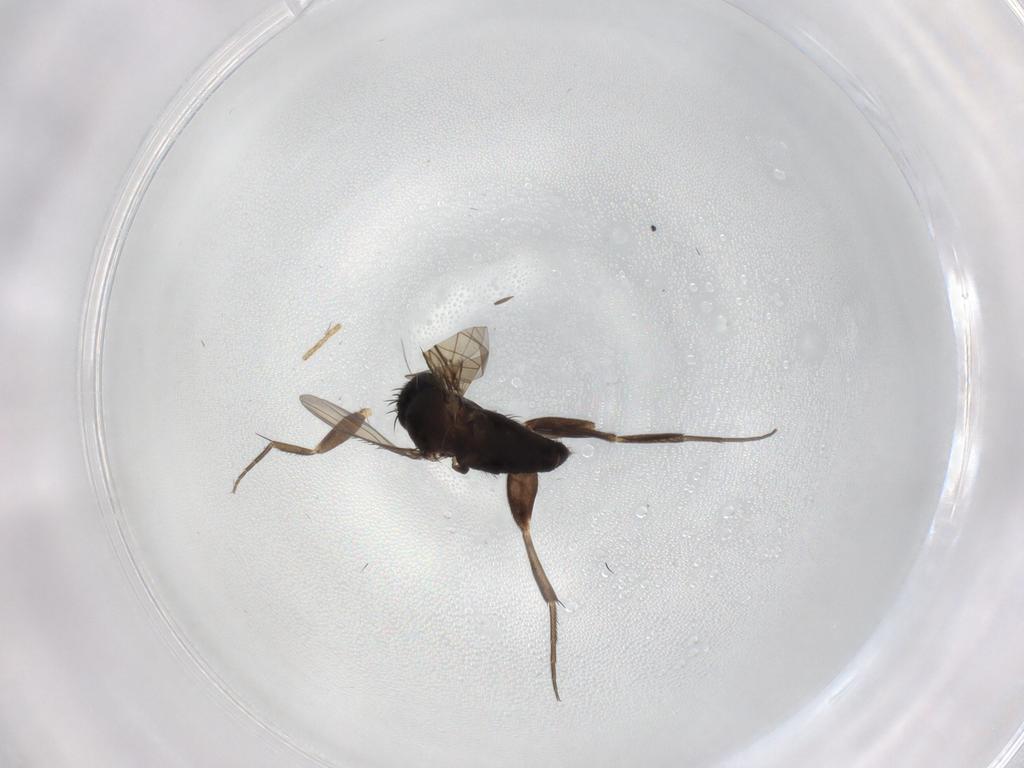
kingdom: Animalia
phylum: Arthropoda
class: Insecta
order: Diptera
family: Phoridae
